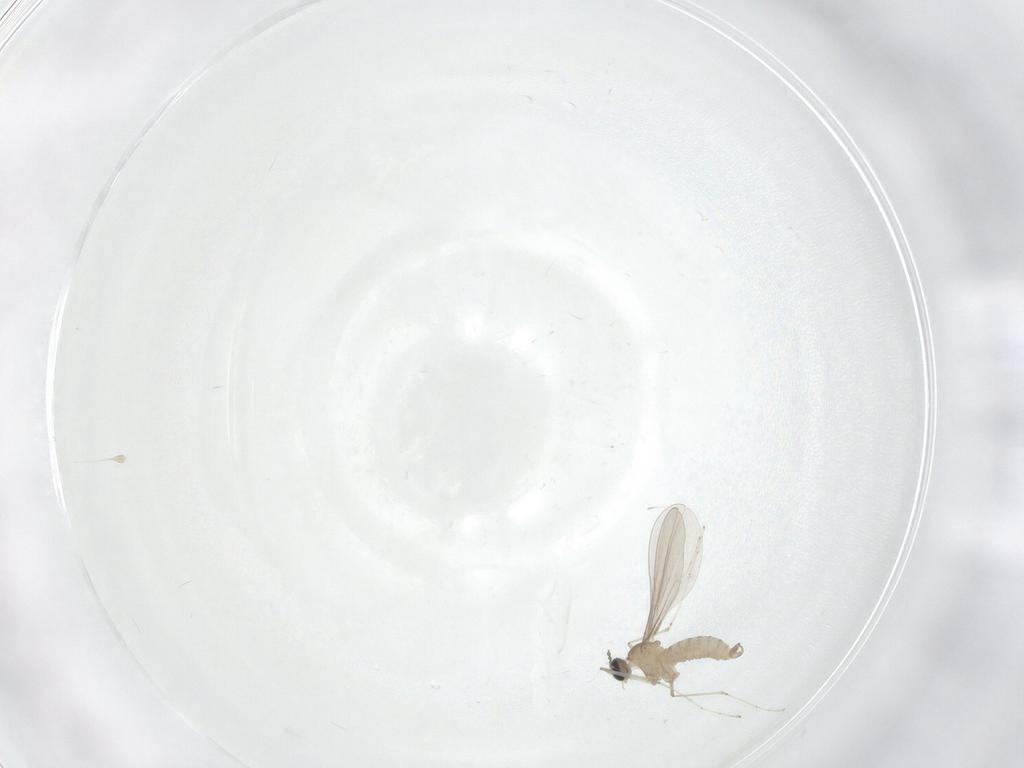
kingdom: Animalia
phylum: Arthropoda
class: Insecta
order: Diptera
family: Cecidomyiidae
